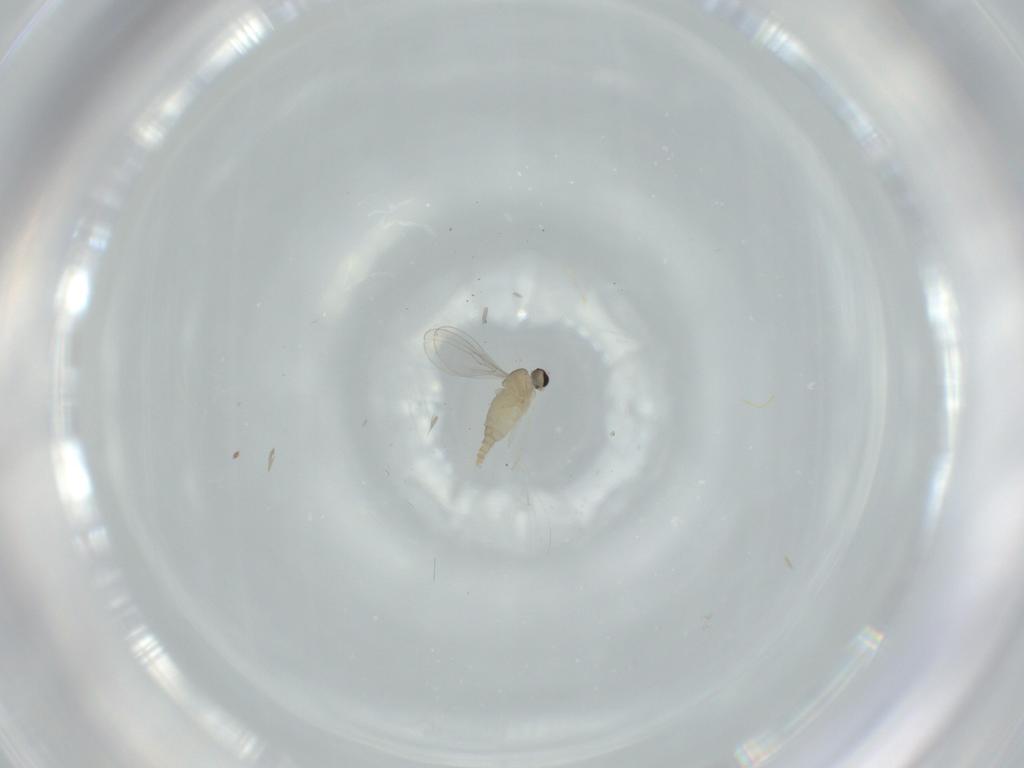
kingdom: Animalia
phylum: Arthropoda
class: Insecta
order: Diptera
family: Cecidomyiidae
